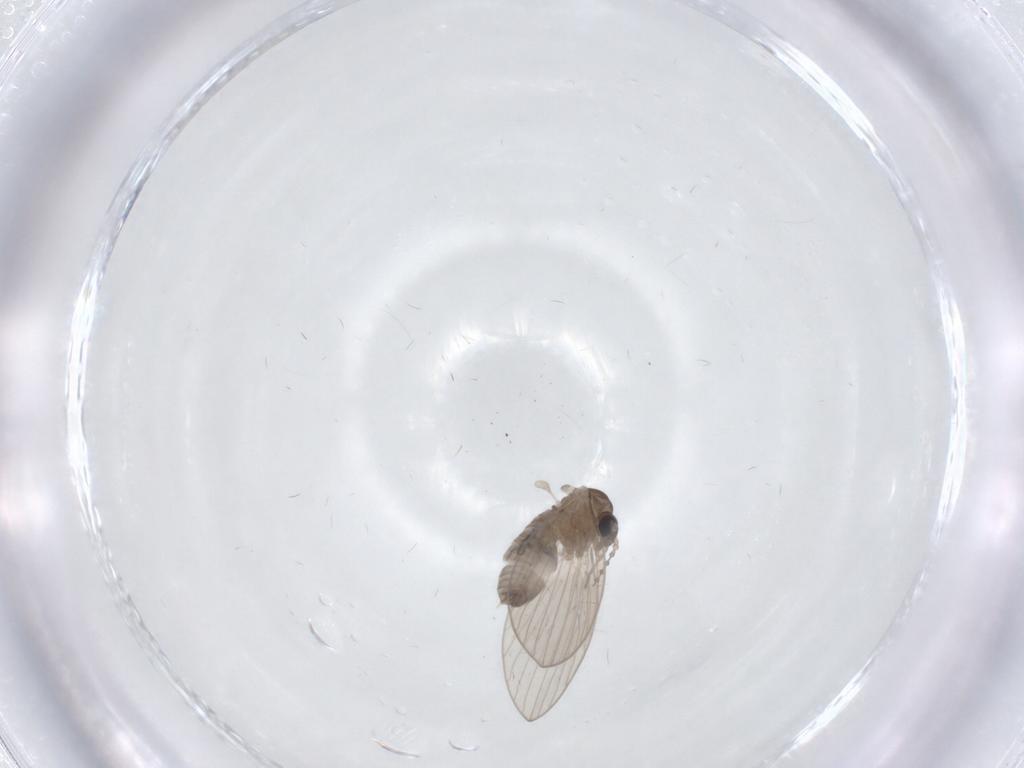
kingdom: Animalia
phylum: Arthropoda
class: Insecta
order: Diptera
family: Psychodidae
